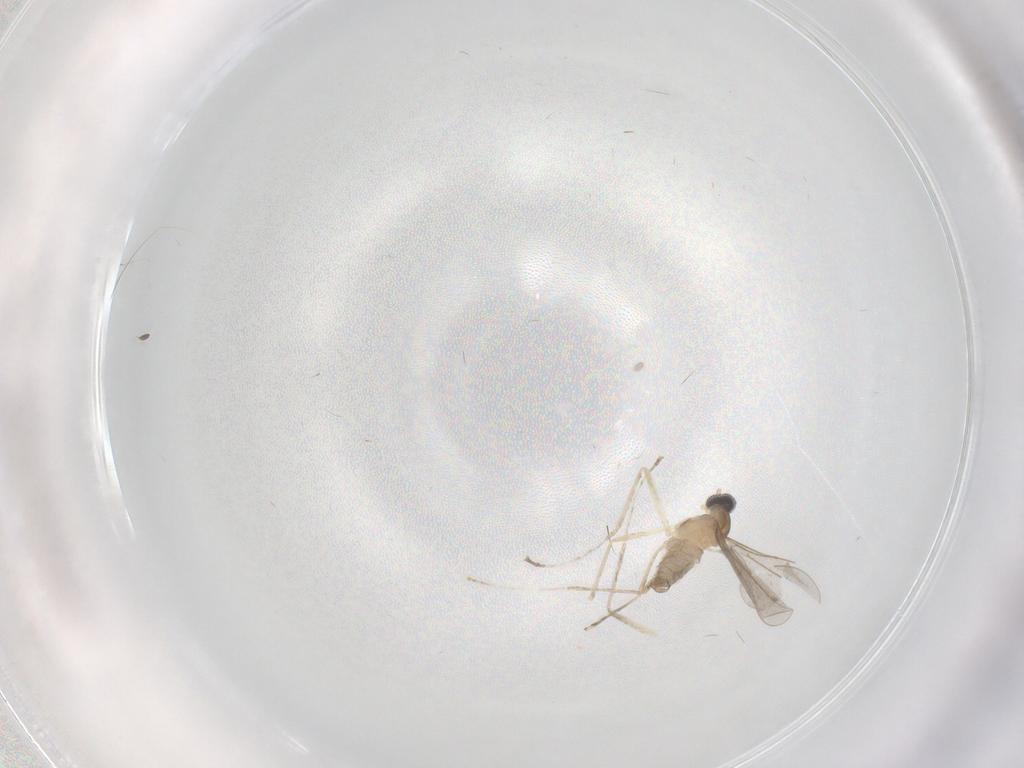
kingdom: Animalia
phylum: Arthropoda
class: Insecta
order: Diptera
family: Cecidomyiidae
